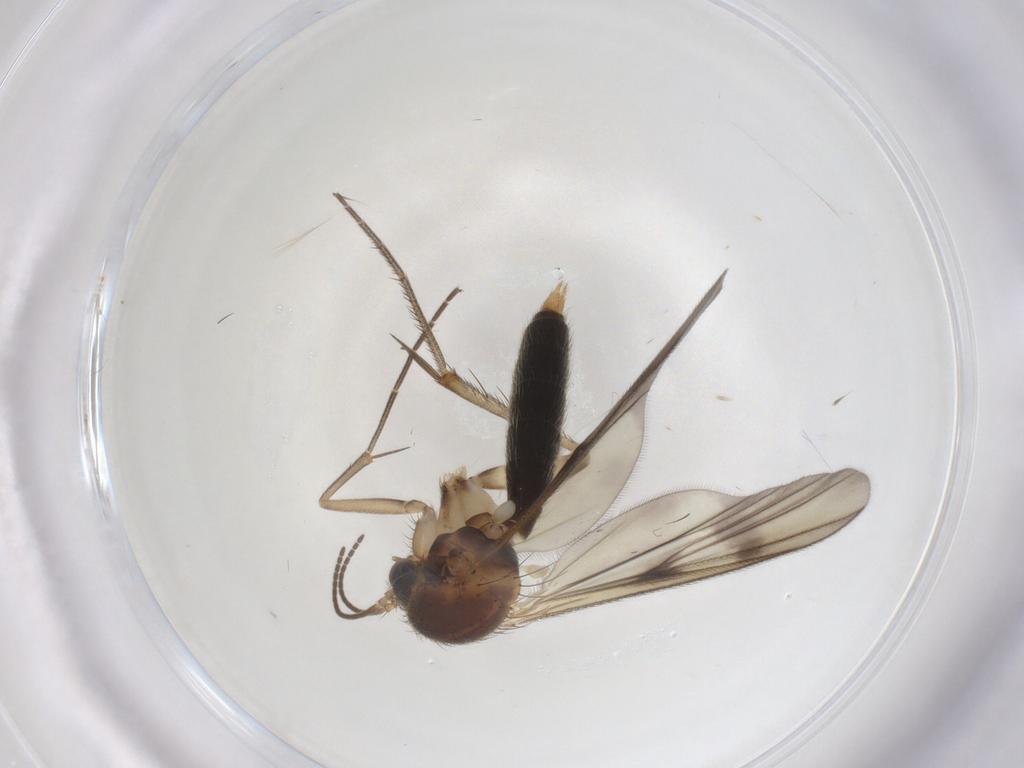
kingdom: Animalia
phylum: Arthropoda
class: Insecta
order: Diptera
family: Mycetophilidae
